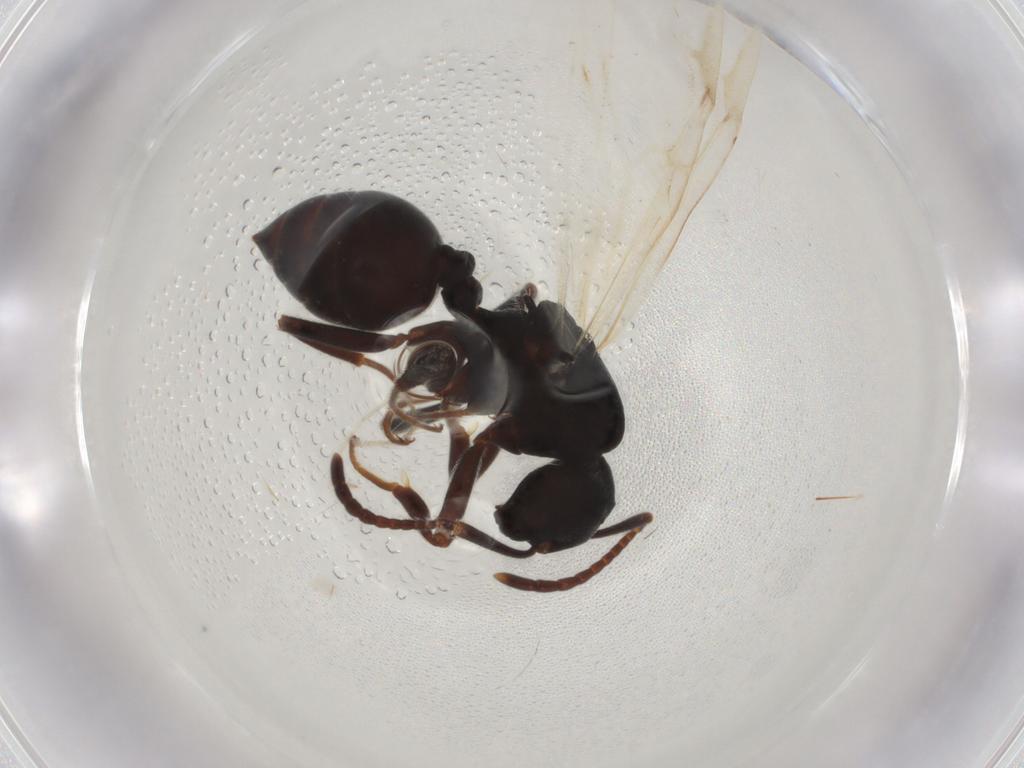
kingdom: Animalia
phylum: Arthropoda
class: Insecta
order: Hymenoptera
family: Formicidae
